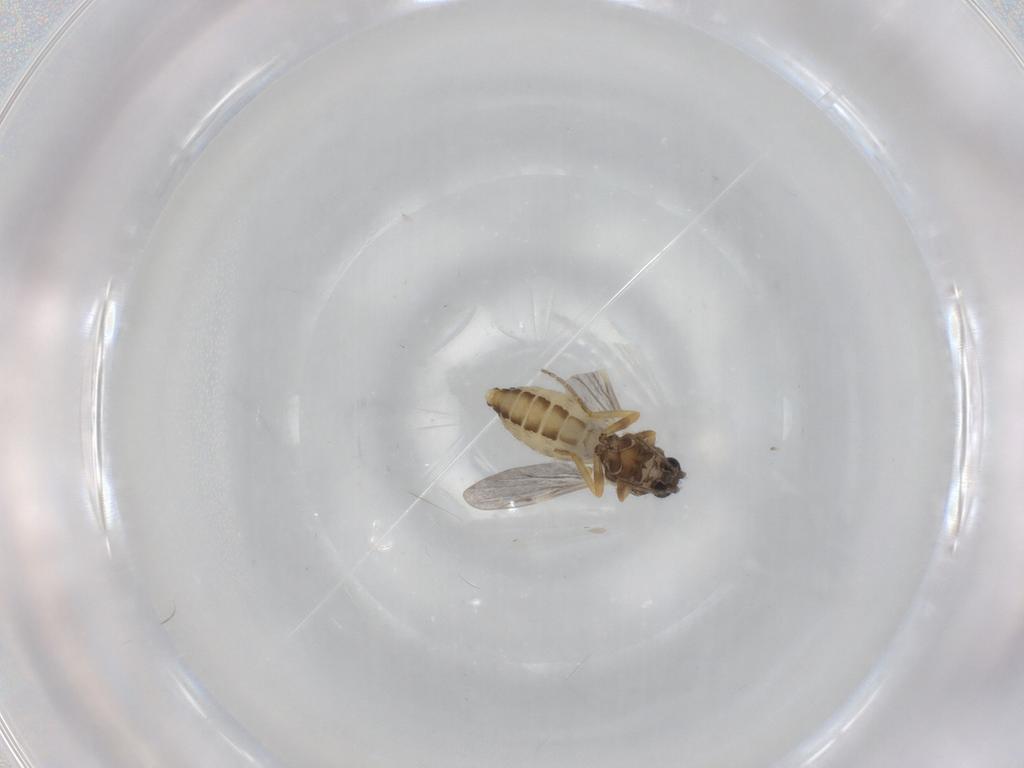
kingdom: Animalia
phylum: Arthropoda
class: Insecta
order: Diptera
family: Ceratopogonidae
